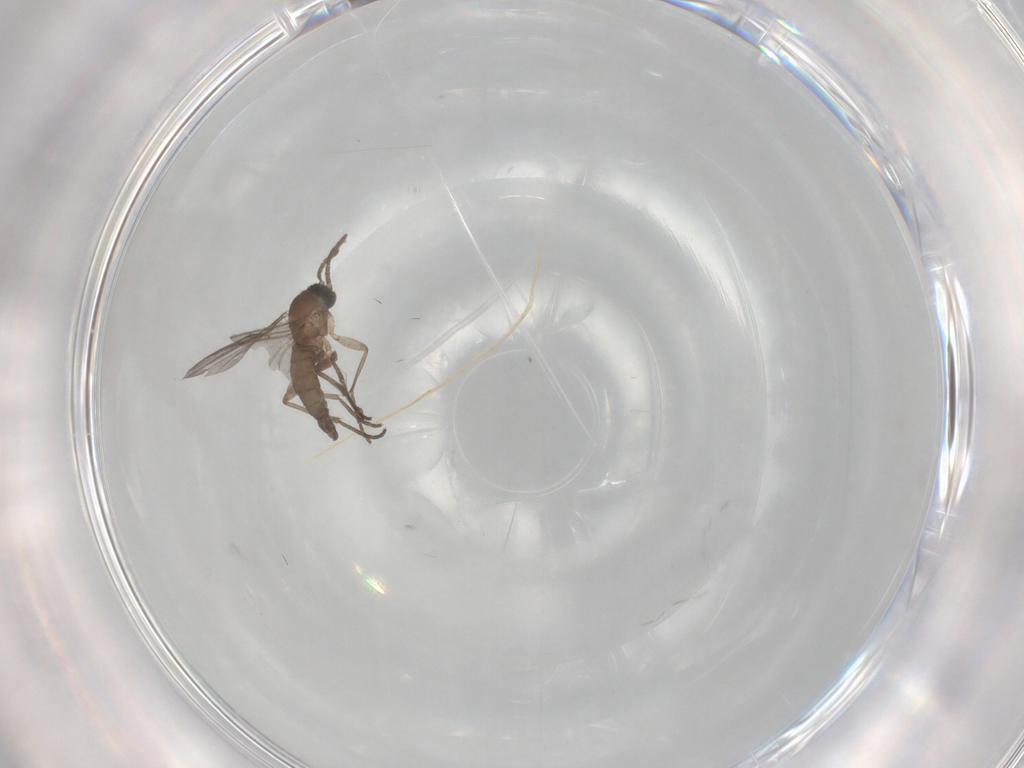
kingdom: Animalia
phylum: Arthropoda
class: Insecta
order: Diptera
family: Sciaridae
